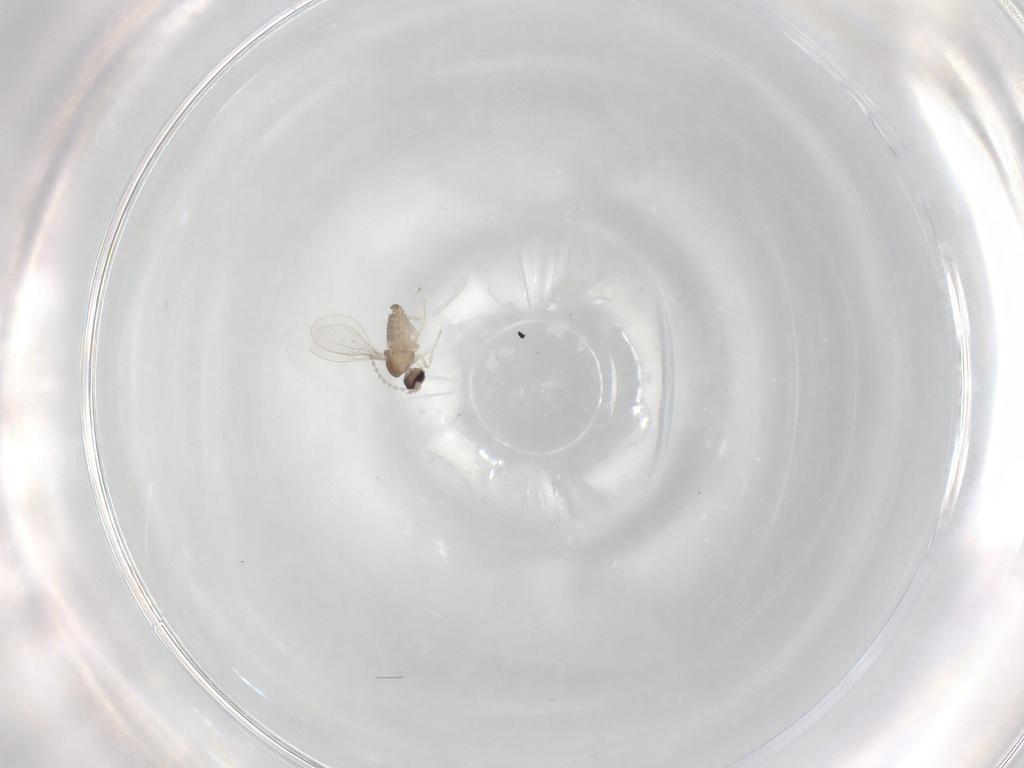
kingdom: Animalia
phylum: Arthropoda
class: Insecta
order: Diptera
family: Cecidomyiidae
